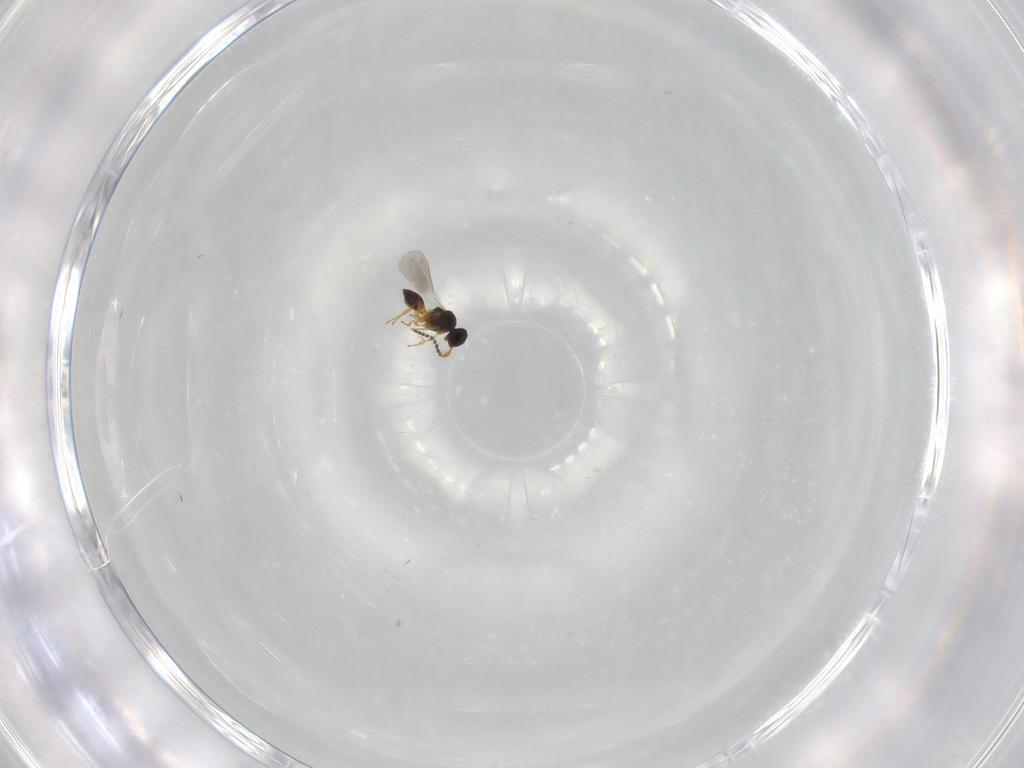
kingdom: Animalia
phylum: Arthropoda
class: Insecta
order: Hymenoptera
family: Platygastridae
